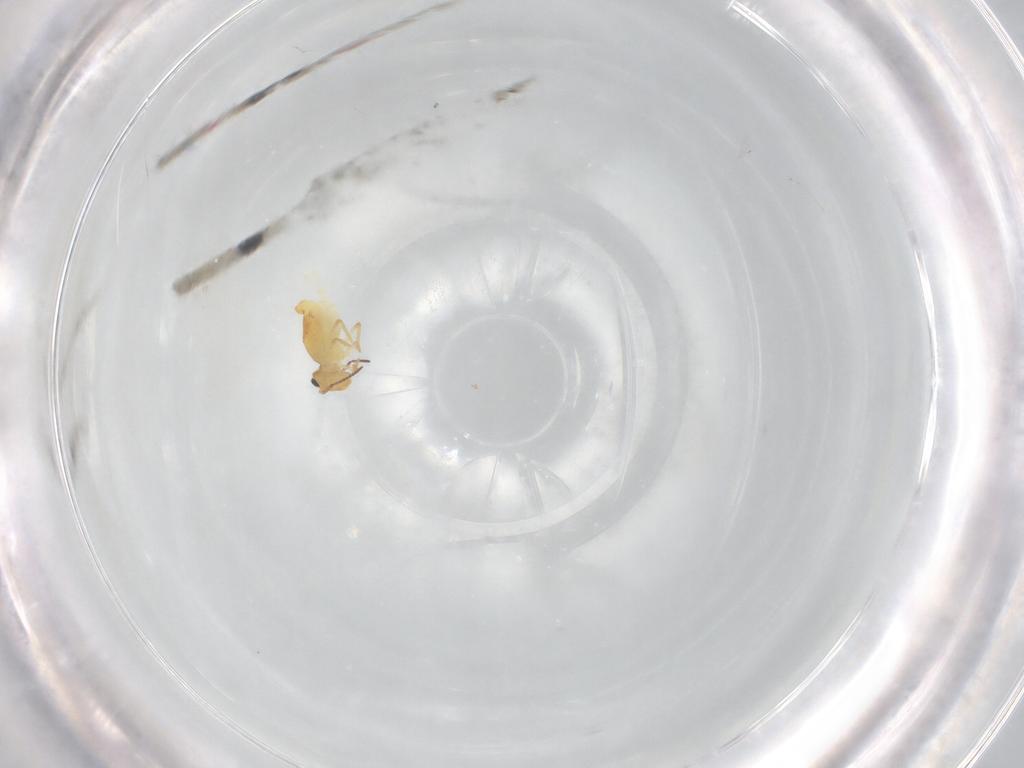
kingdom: Animalia
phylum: Arthropoda
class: Collembola
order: Symphypleona
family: Bourletiellidae
